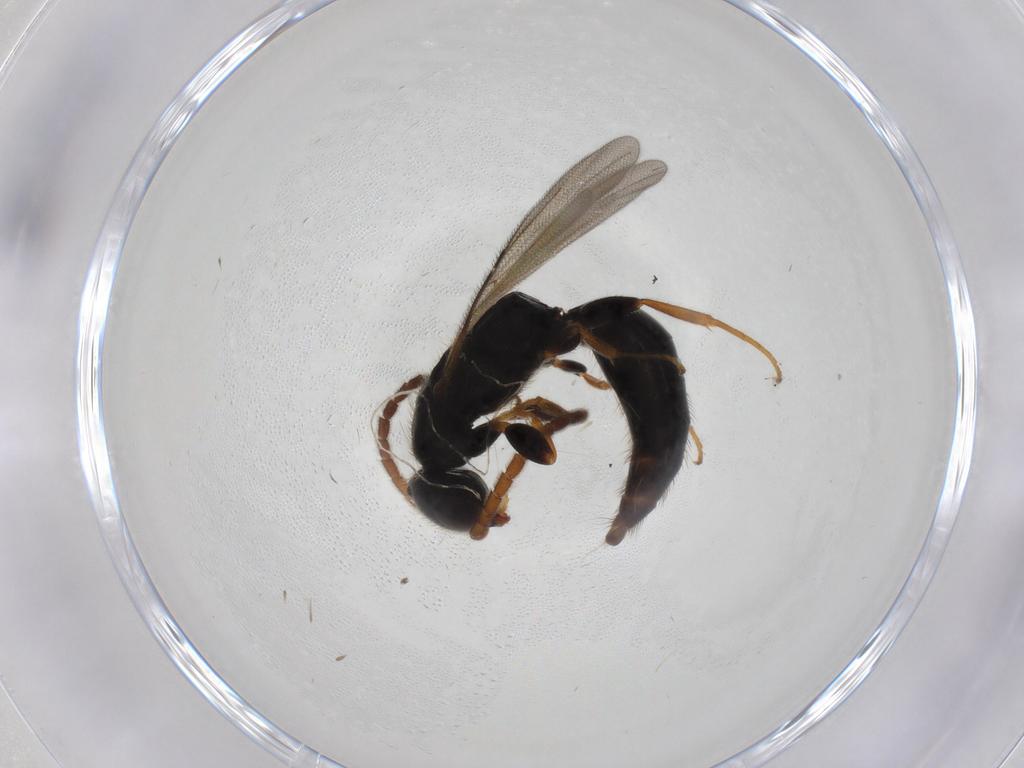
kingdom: Animalia
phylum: Arthropoda
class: Insecta
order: Hymenoptera
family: Bethylidae
